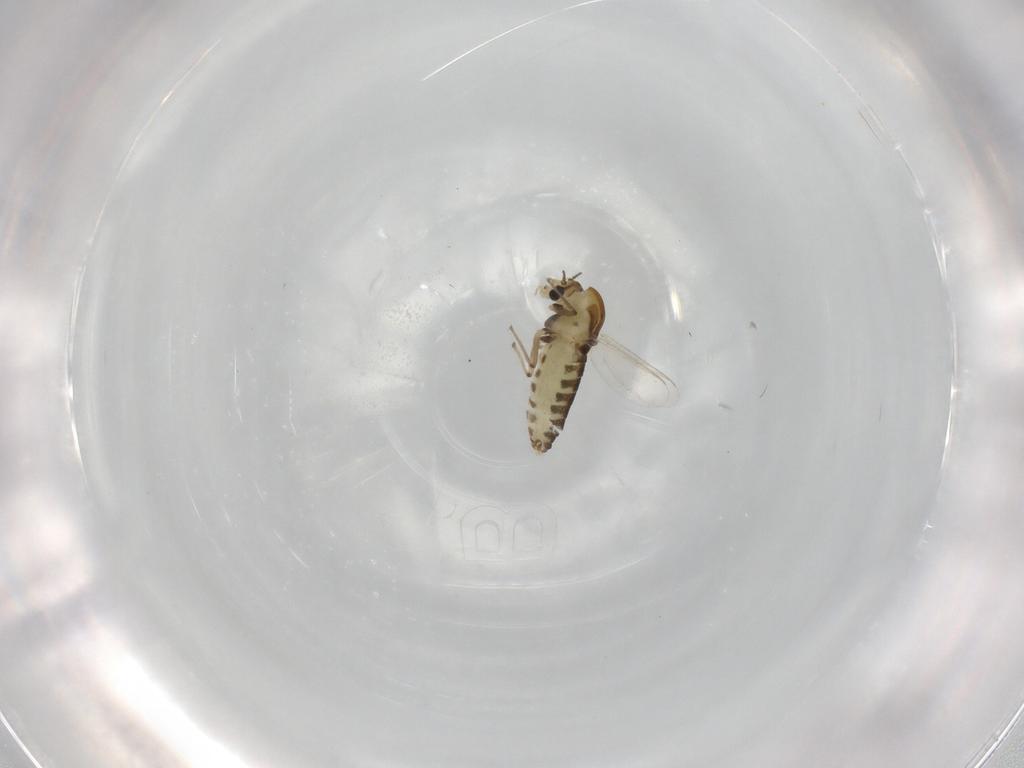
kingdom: Animalia
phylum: Arthropoda
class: Insecta
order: Diptera
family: Chironomidae
